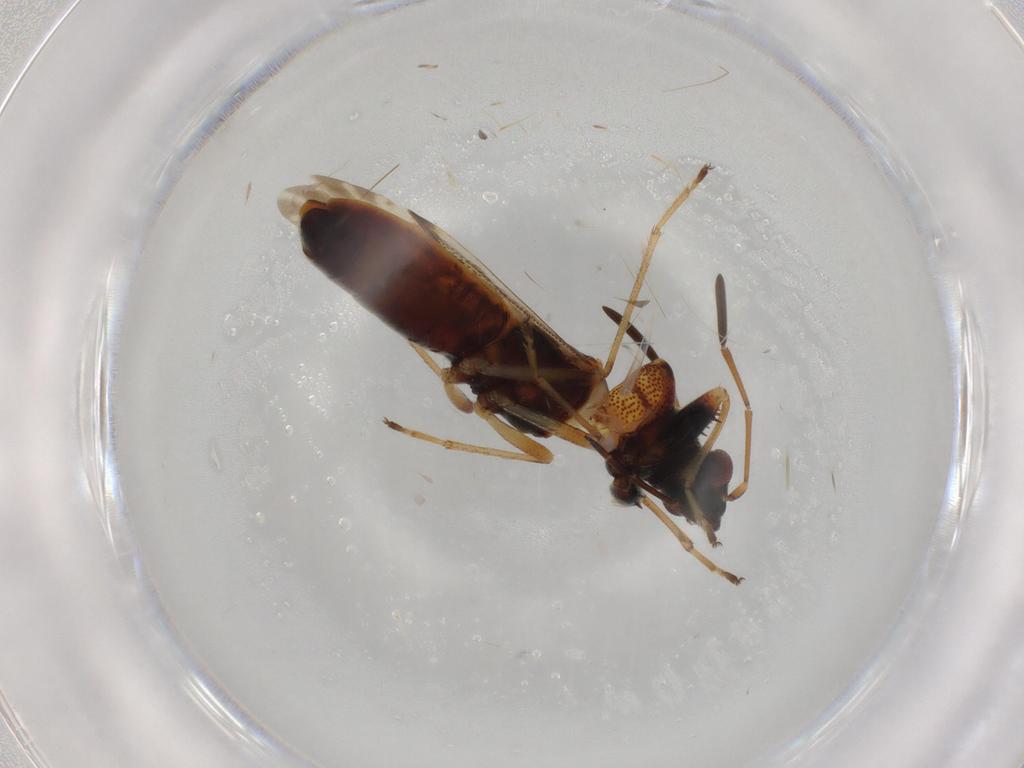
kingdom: Animalia
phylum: Arthropoda
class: Insecta
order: Hemiptera
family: Rhyparochromidae
